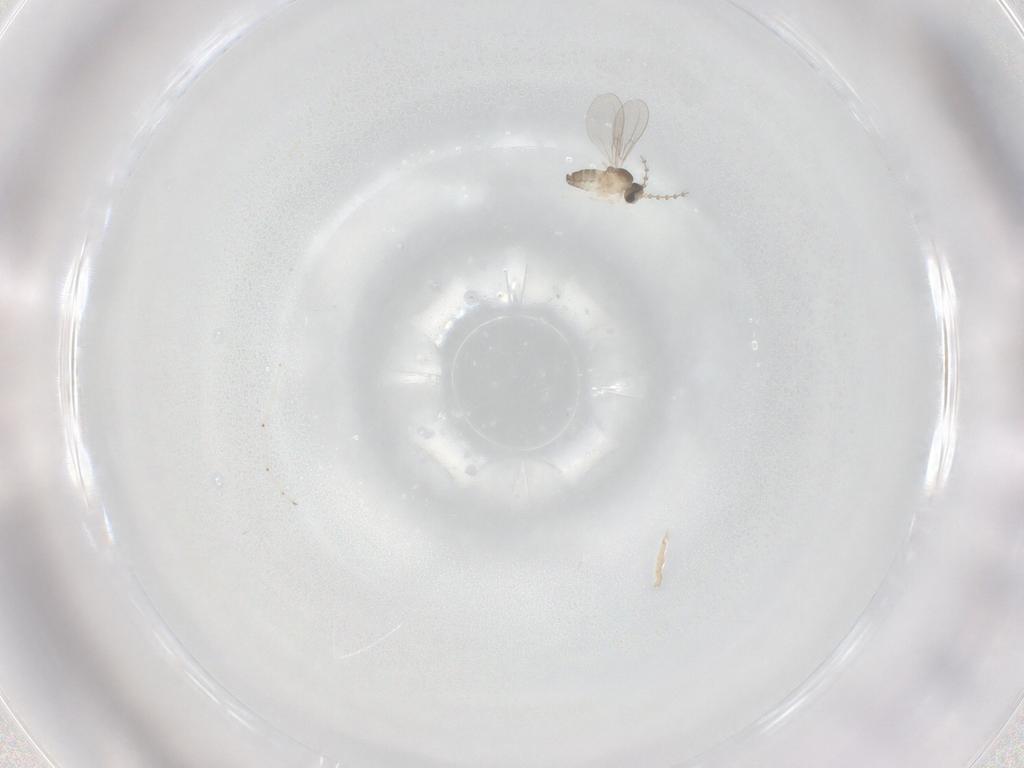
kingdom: Animalia
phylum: Arthropoda
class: Insecta
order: Diptera
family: Cecidomyiidae
